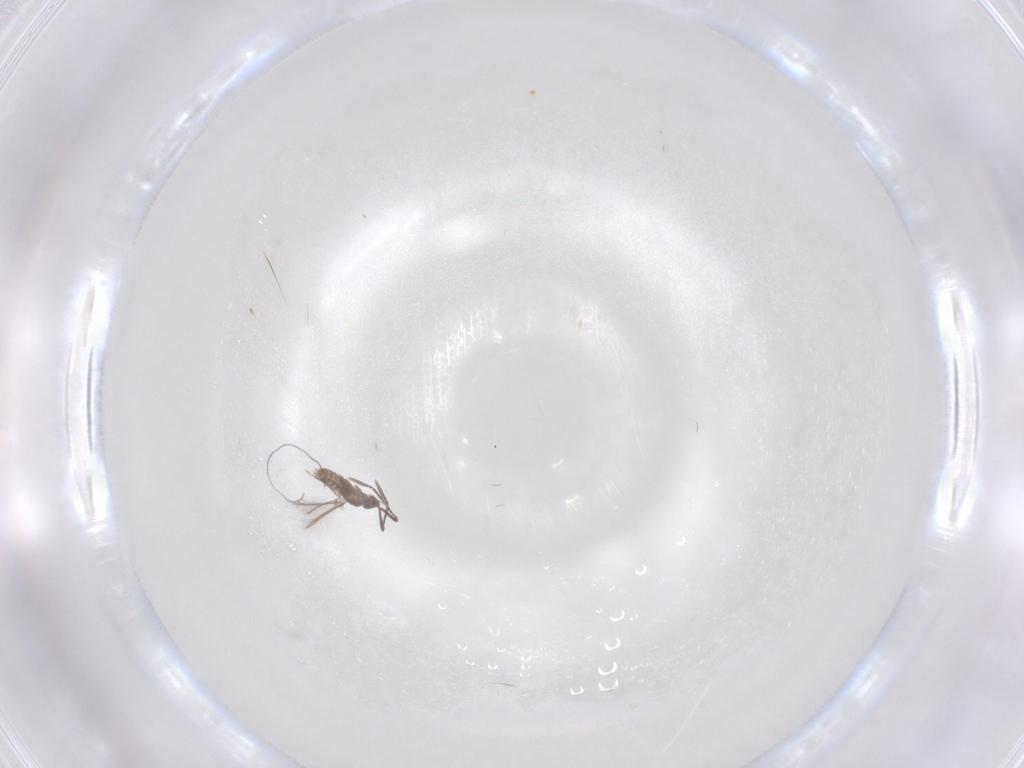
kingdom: Animalia
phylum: Arthropoda
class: Insecta
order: Hymenoptera
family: Mymaridae
